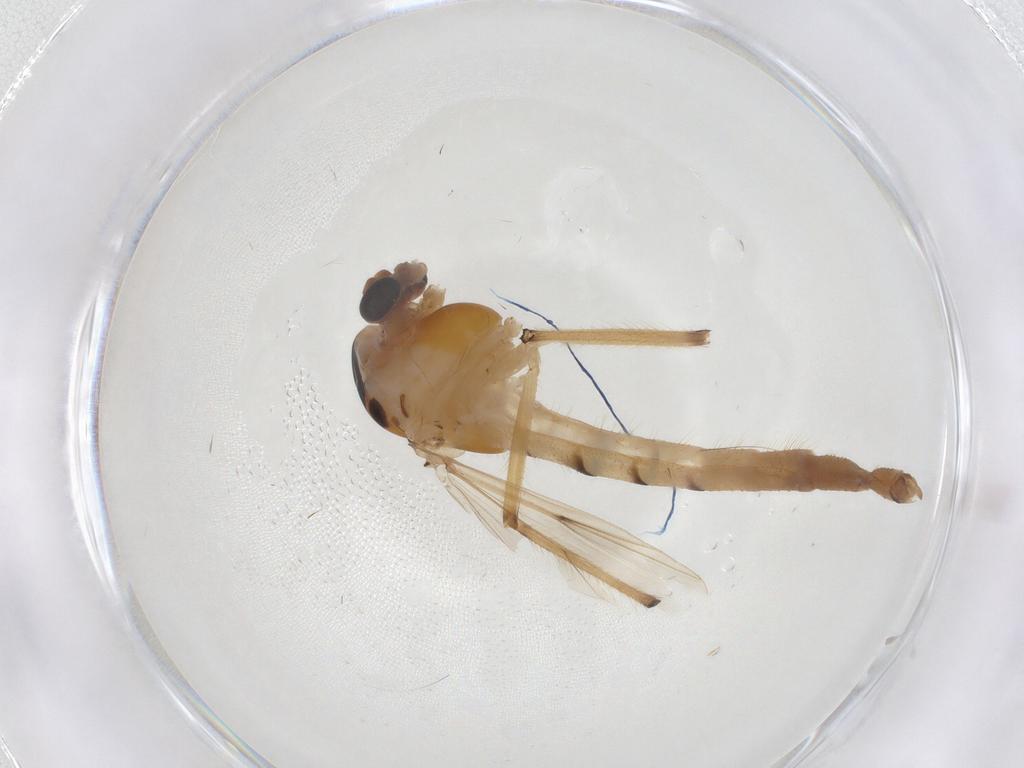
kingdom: Animalia
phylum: Arthropoda
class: Insecta
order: Diptera
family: Chironomidae
